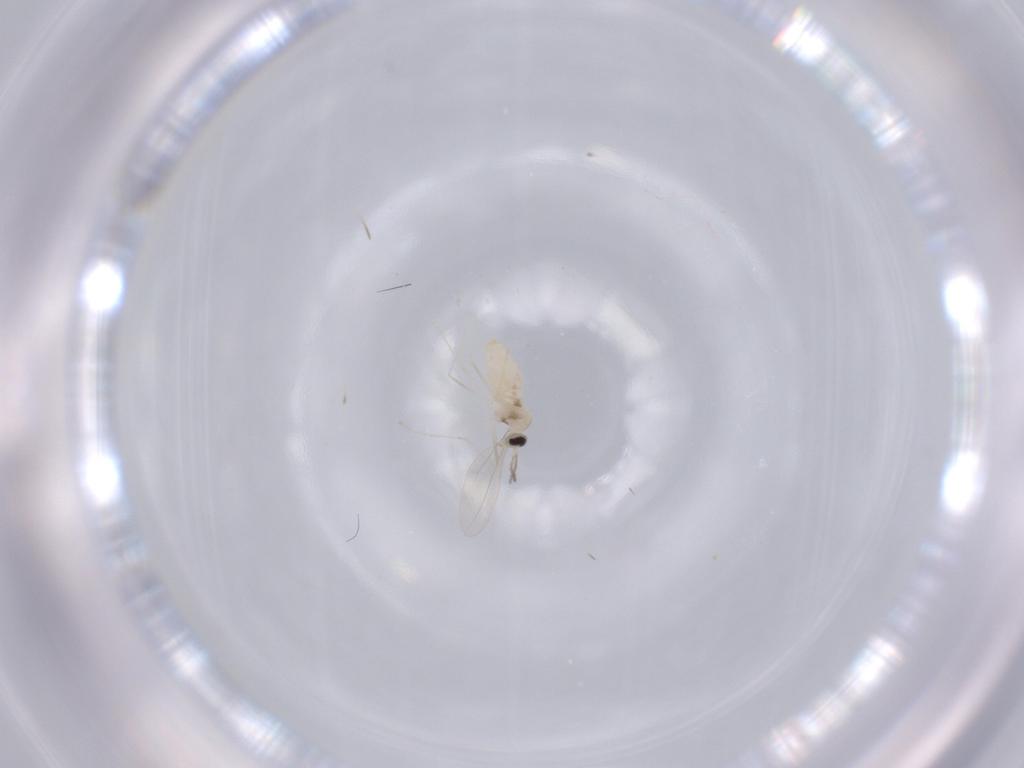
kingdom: Animalia
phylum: Arthropoda
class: Insecta
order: Diptera
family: Cecidomyiidae
